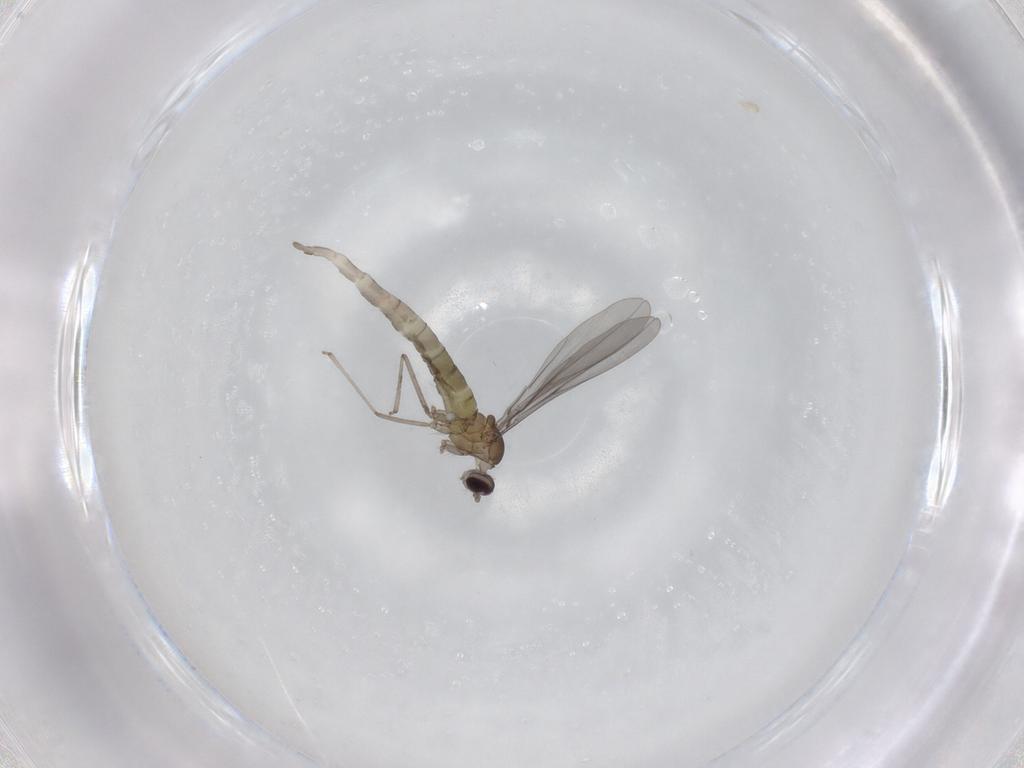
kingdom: Animalia
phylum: Arthropoda
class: Insecta
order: Diptera
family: Cecidomyiidae
